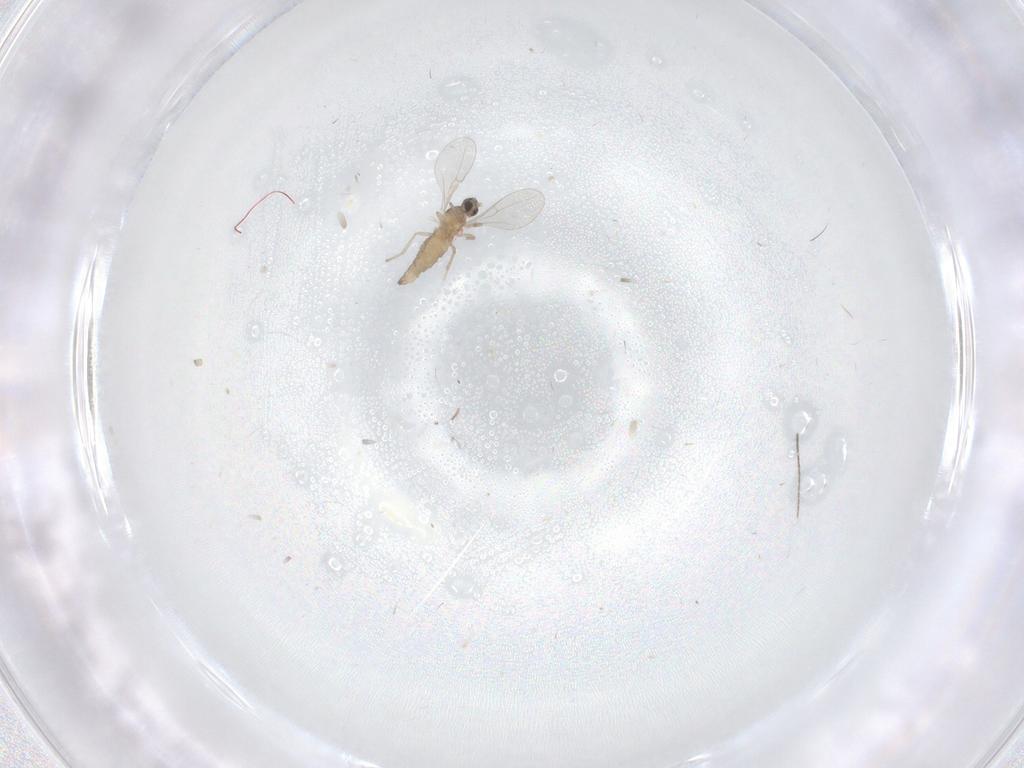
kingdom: Animalia
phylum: Arthropoda
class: Insecta
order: Diptera
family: Cecidomyiidae
